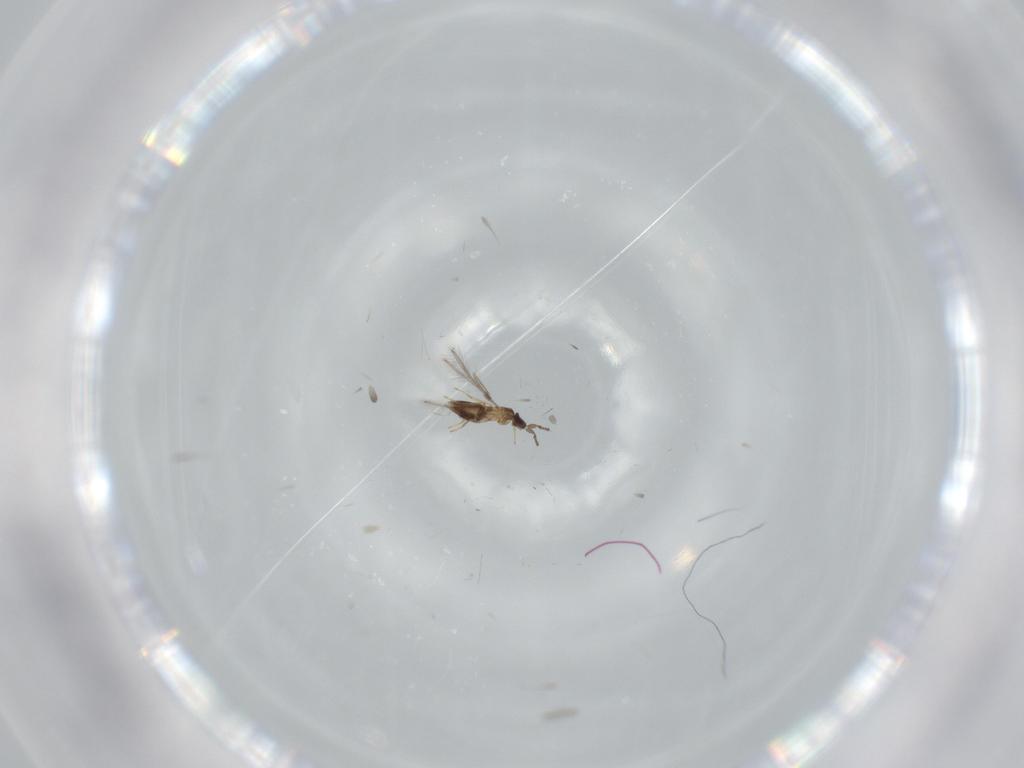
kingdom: Animalia
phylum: Arthropoda
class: Insecta
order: Hymenoptera
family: Mymaridae
